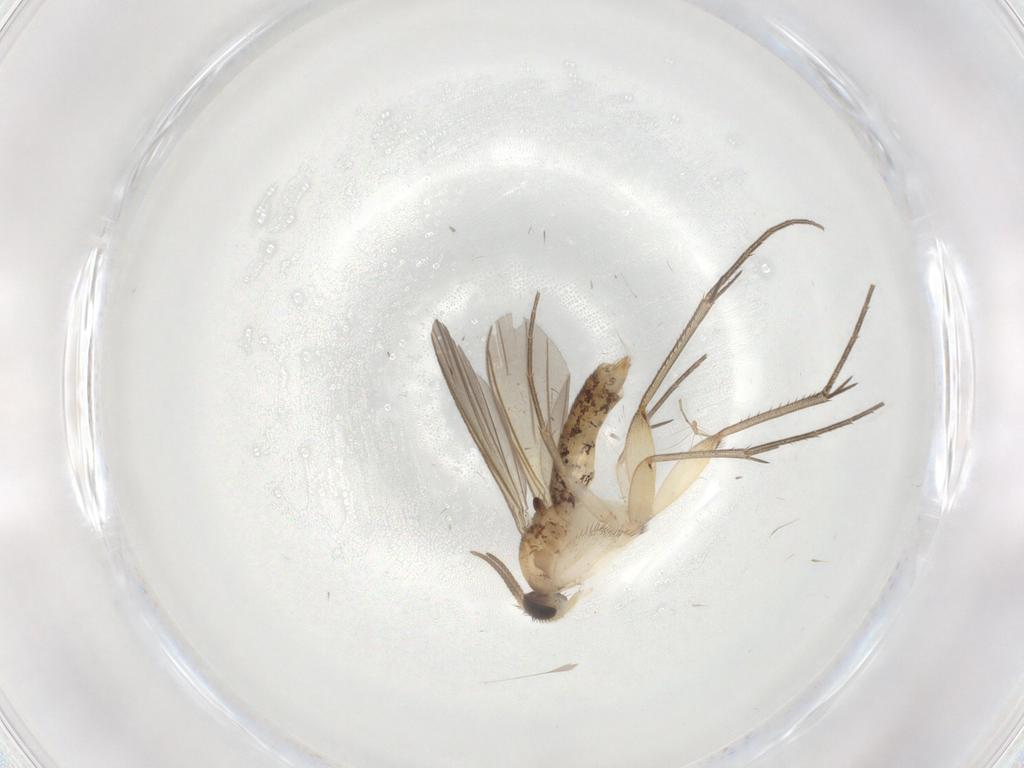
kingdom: Animalia
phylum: Arthropoda
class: Insecta
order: Diptera
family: Mycetophilidae
